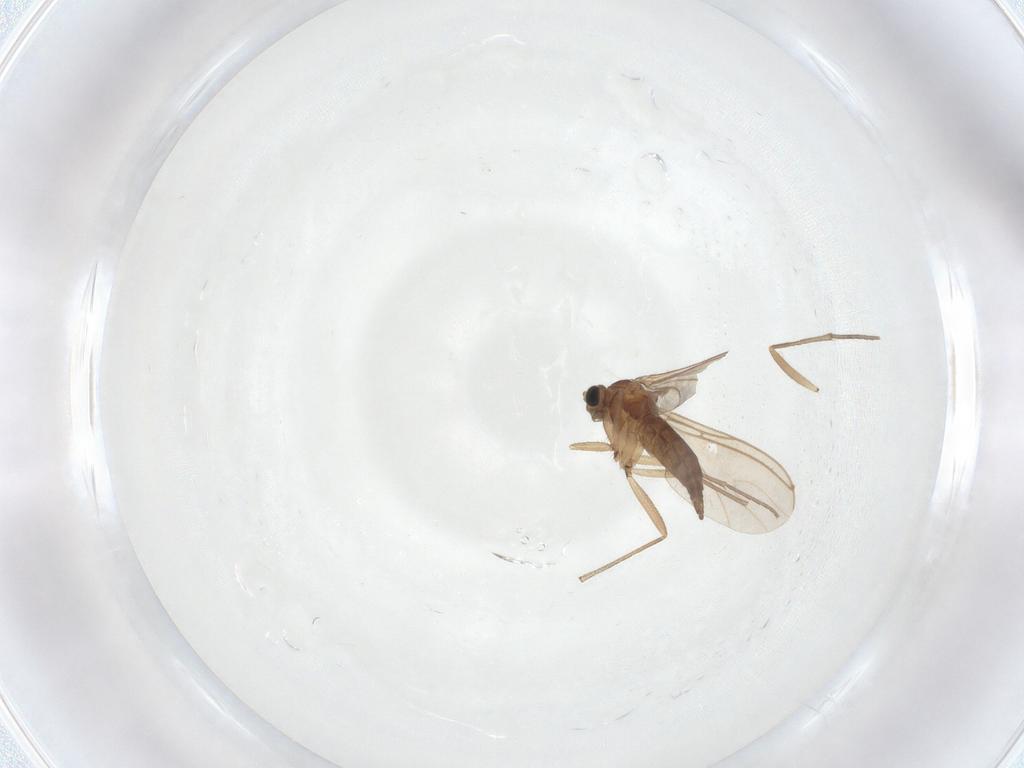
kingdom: Animalia
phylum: Arthropoda
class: Insecta
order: Diptera
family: Sciaridae
